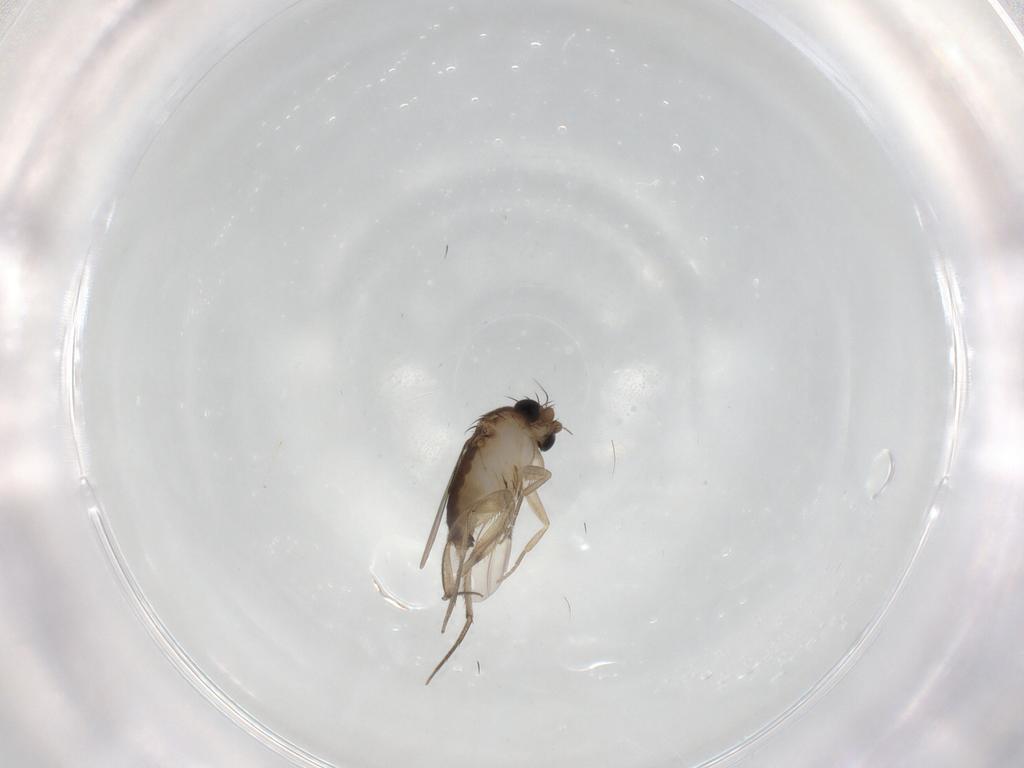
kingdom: Animalia
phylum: Arthropoda
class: Insecta
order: Diptera
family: Phoridae
